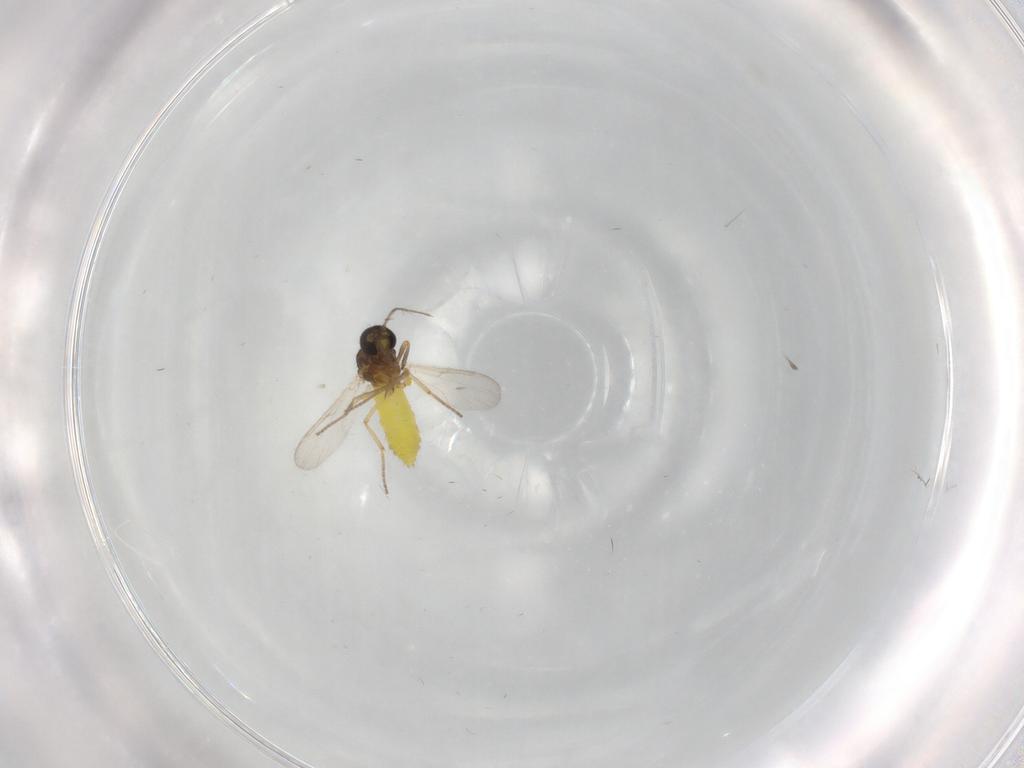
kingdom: Animalia
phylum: Arthropoda
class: Insecta
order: Diptera
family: Ceratopogonidae
